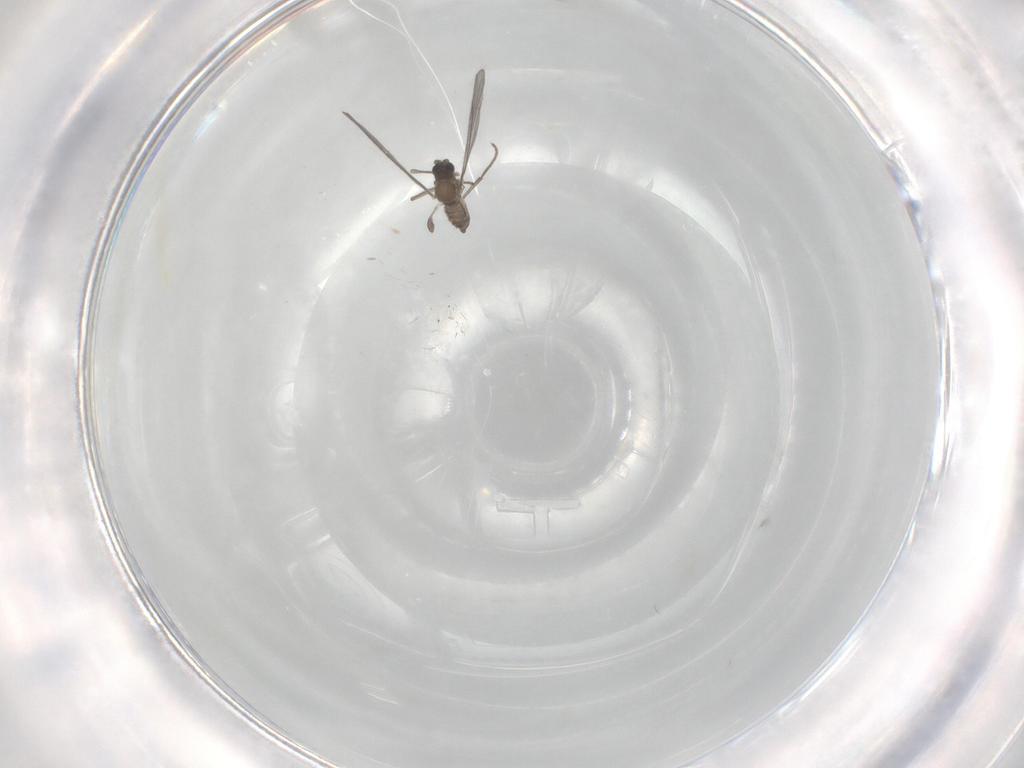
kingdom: Animalia
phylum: Arthropoda
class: Insecta
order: Diptera
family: Sciaridae
